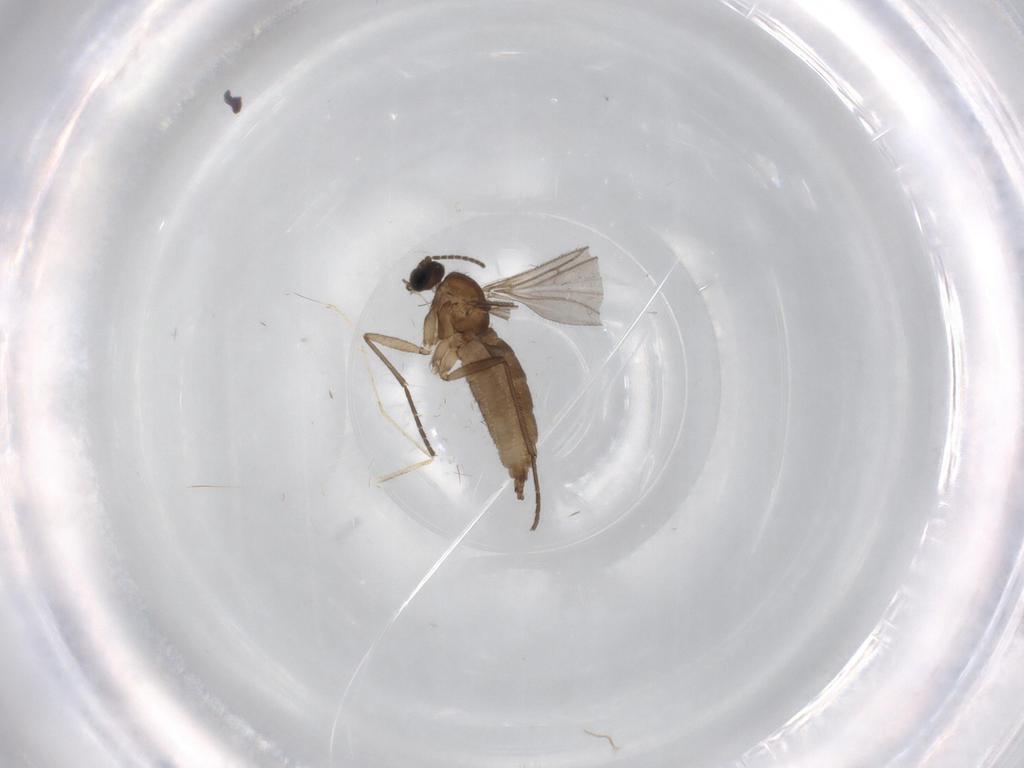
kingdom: Animalia
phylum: Arthropoda
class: Insecta
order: Diptera
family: Sciaridae
